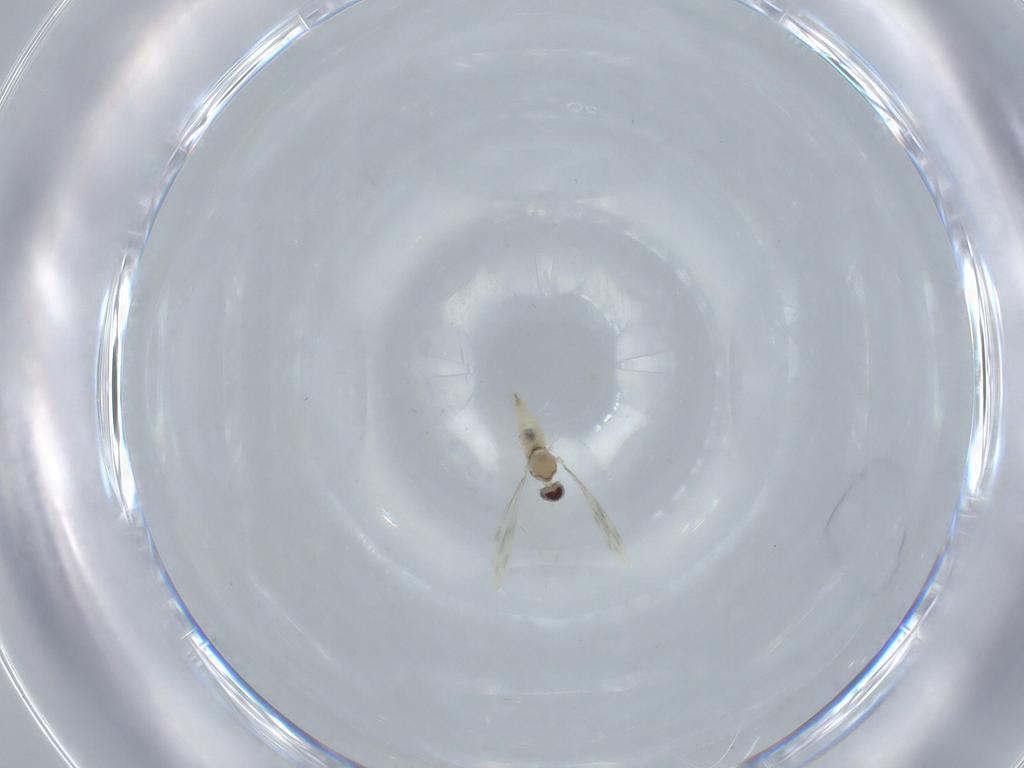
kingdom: Animalia
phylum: Arthropoda
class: Insecta
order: Diptera
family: Cecidomyiidae
